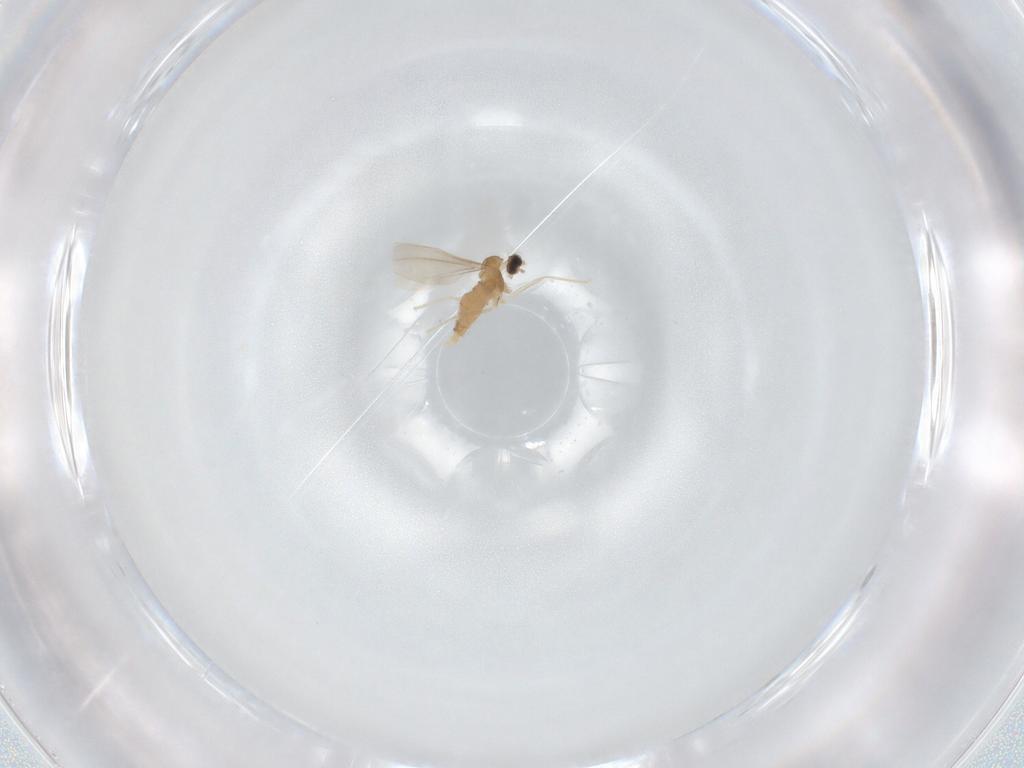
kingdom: Animalia
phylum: Arthropoda
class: Insecta
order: Diptera
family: Cecidomyiidae
